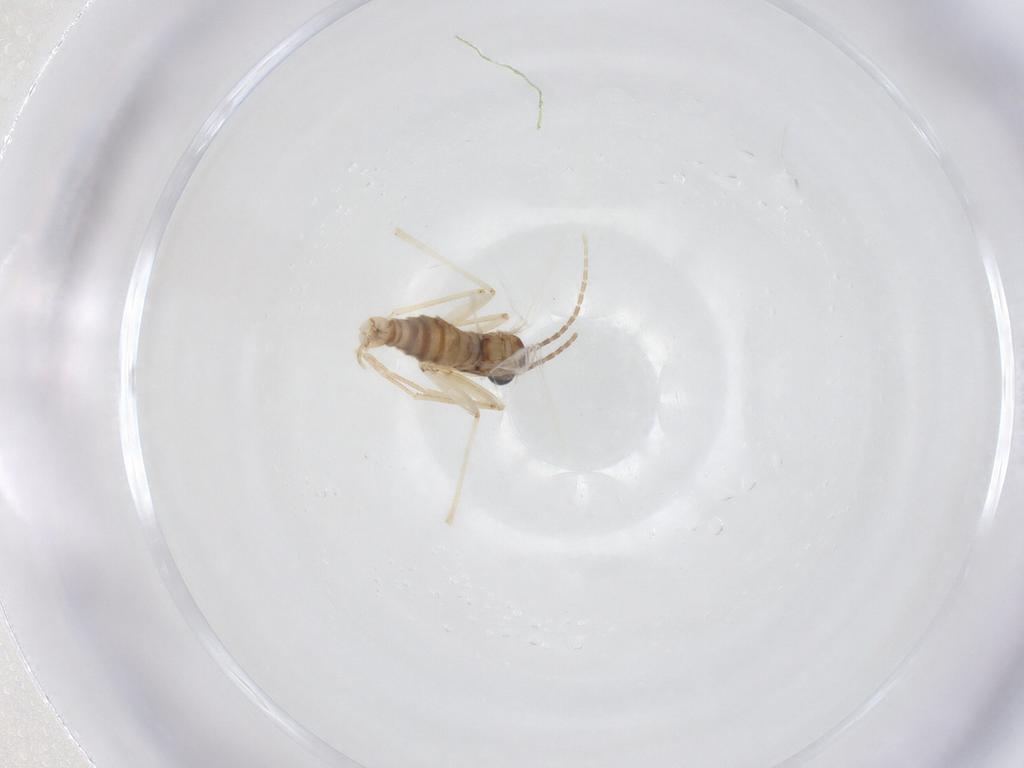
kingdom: Animalia
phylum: Arthropoda
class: Insecta
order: Diptera
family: Sciaridae
